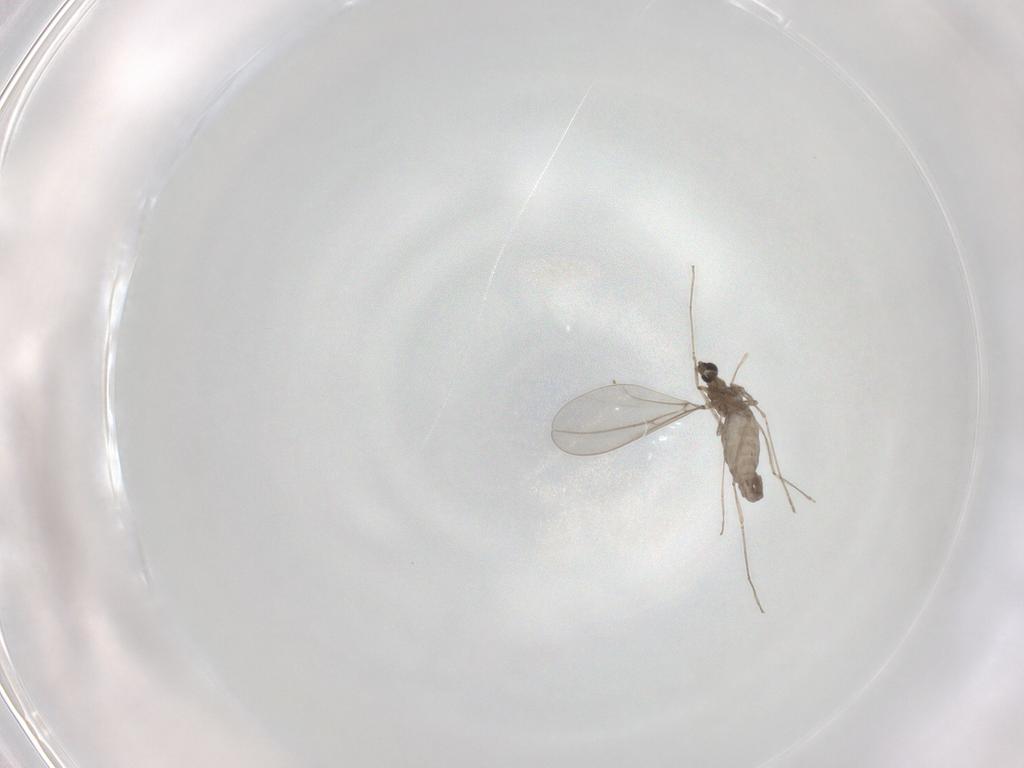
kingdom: Animalia
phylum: Arthropoda
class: Insecta
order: Diptera
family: Cecidomyiidae
